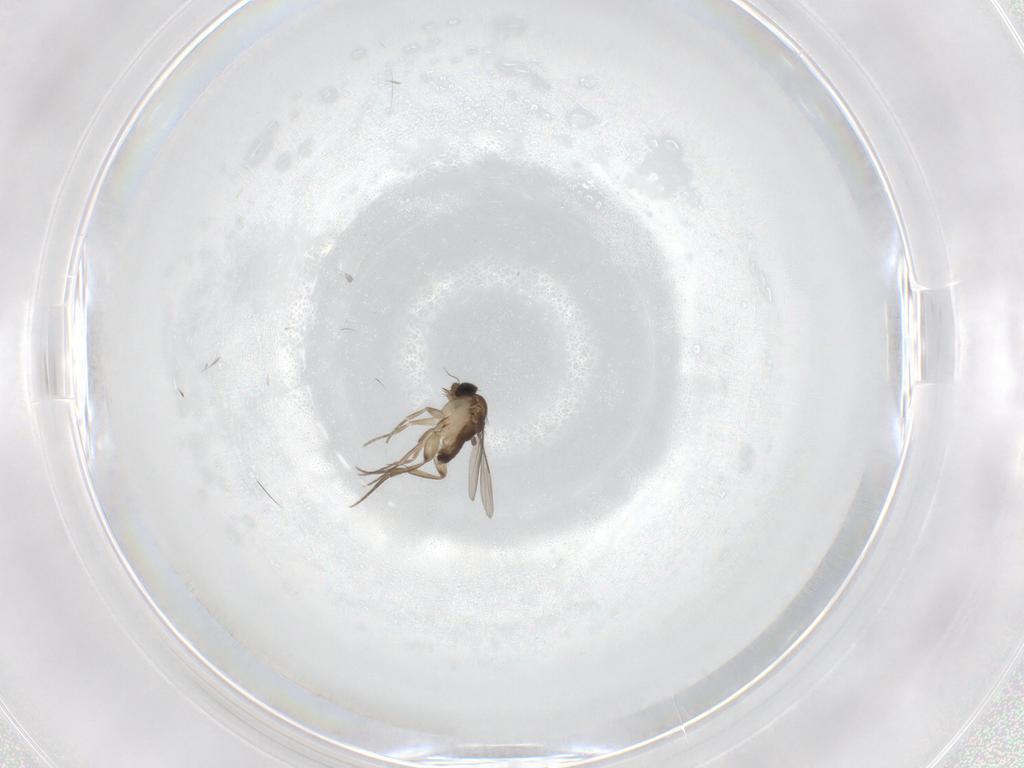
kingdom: Animalia
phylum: Arthropoda
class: Insecta
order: Diptera
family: Phoridae
